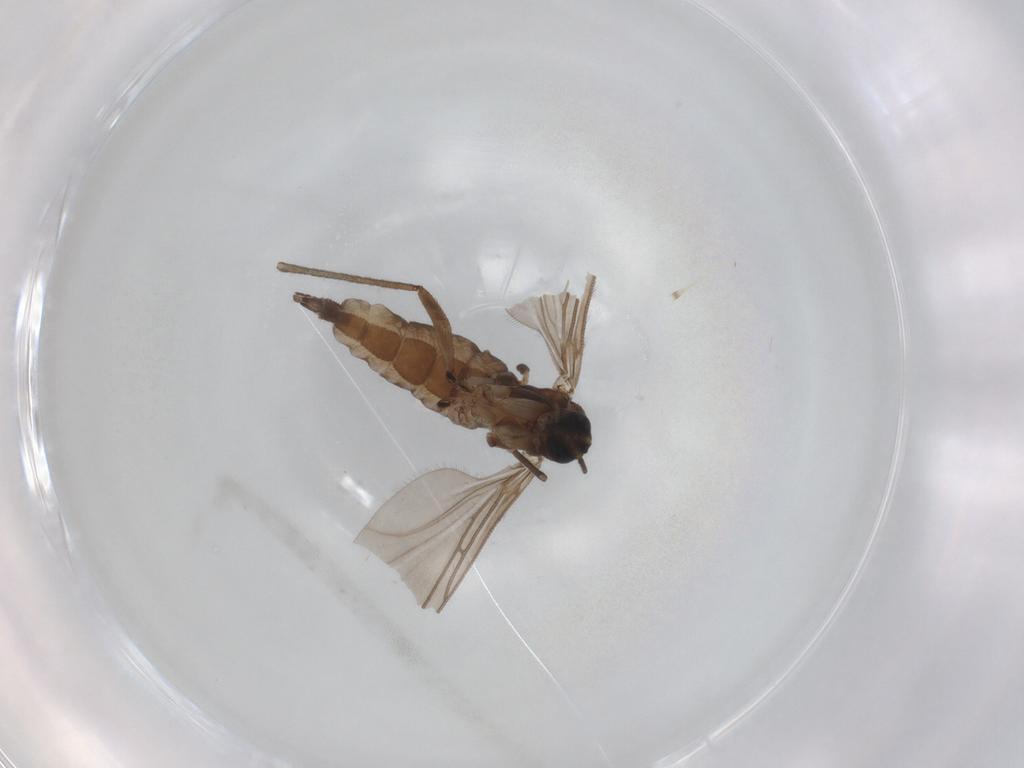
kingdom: Animalia
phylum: Arthropoda
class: Insecta
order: Diptera
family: Sciaridae
